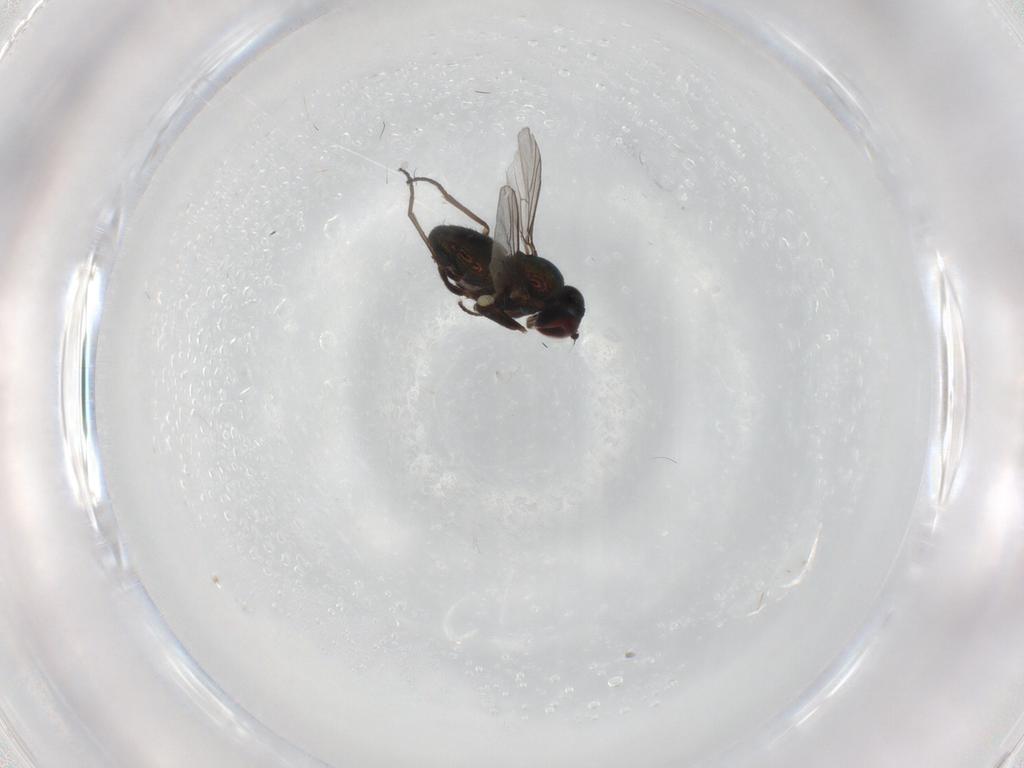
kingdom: Animalia
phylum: Arthropoda
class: Insecta
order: Diptera
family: Dolichopodidae
